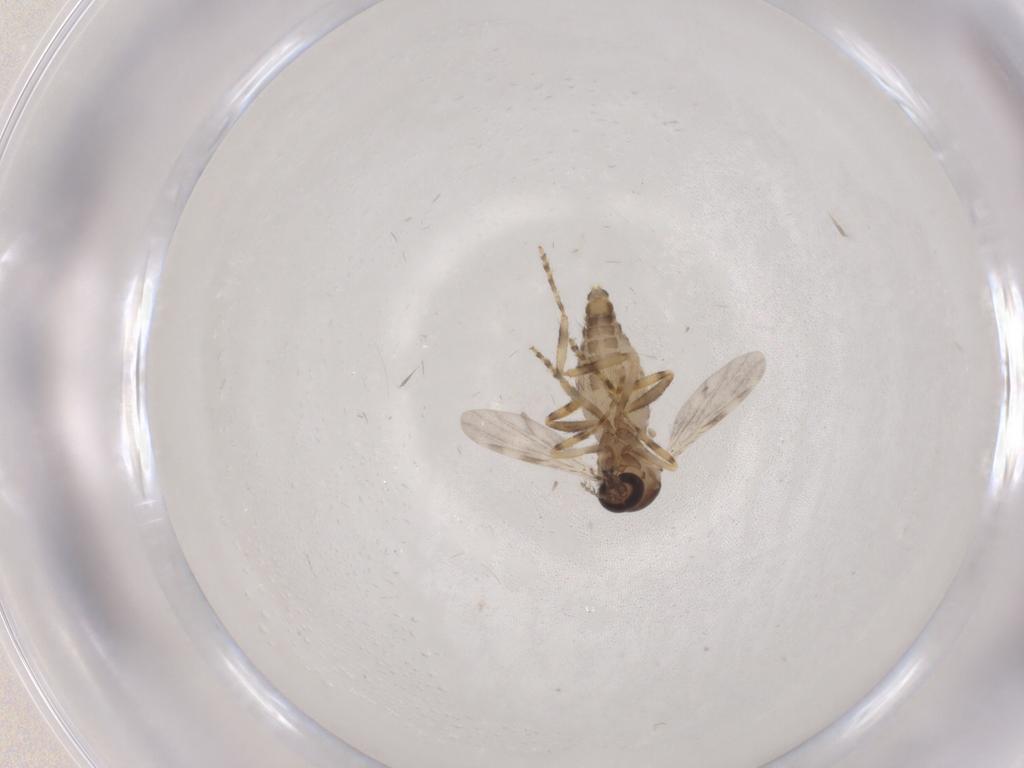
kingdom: Animalia
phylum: Arthropoda
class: Insecta
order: Diptera
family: Ceratopogonidae
